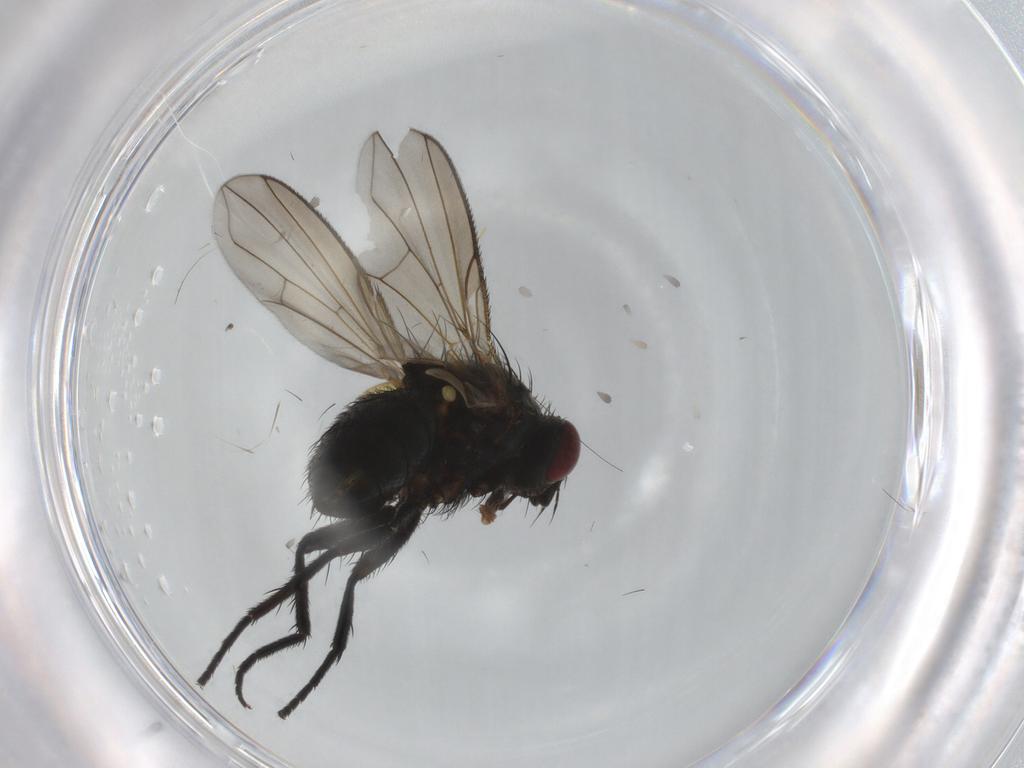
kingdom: Animalia
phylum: Arthropoda
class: Insecta
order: Diptera
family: Tachinidae
